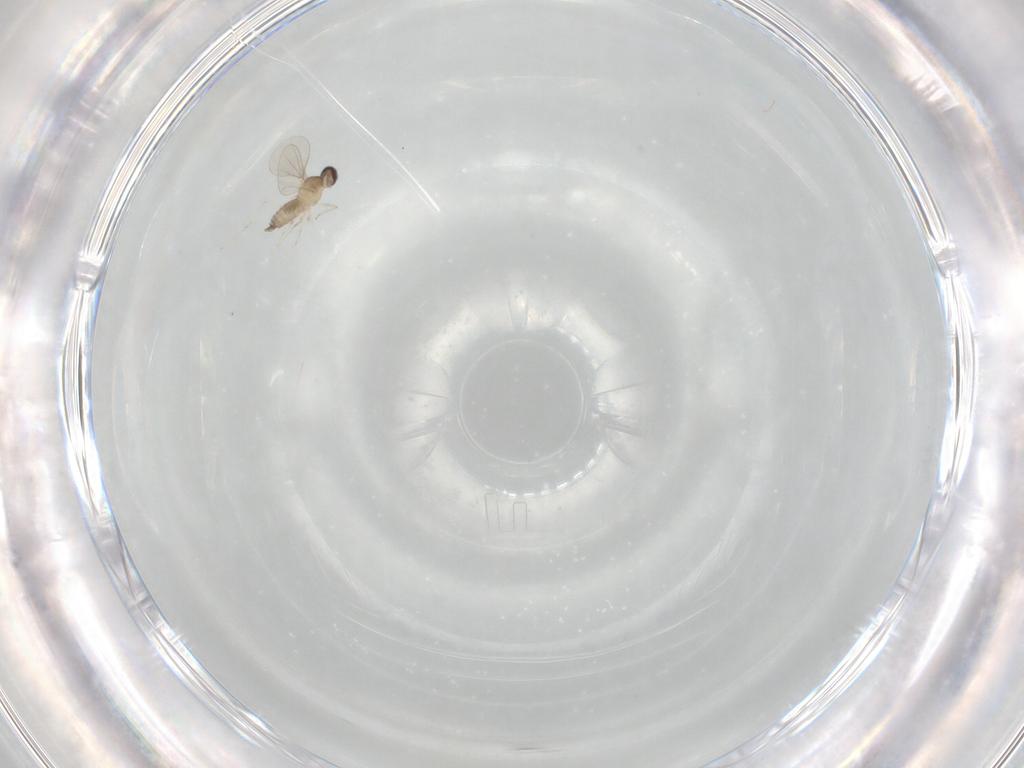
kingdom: Animalia
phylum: Arthropoda
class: Insecta
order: Diptera
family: Cecidomyiidae
